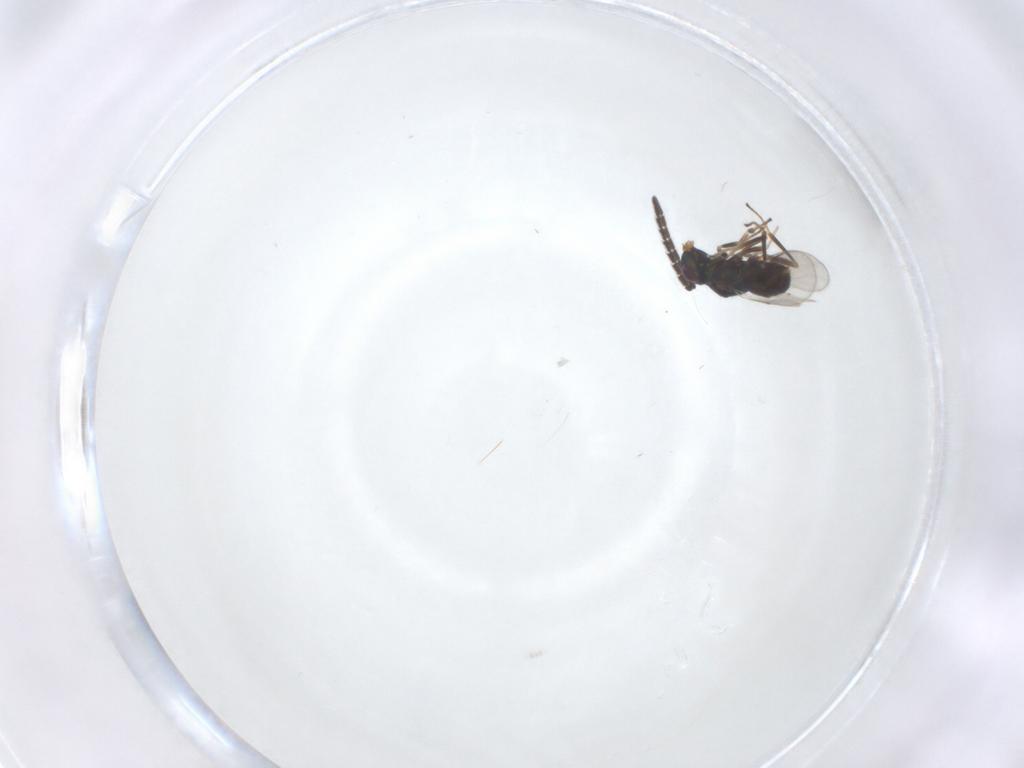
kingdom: Animalia
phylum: Arthropoda
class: Insecta
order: Hymenoptera
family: Encyrtidae
